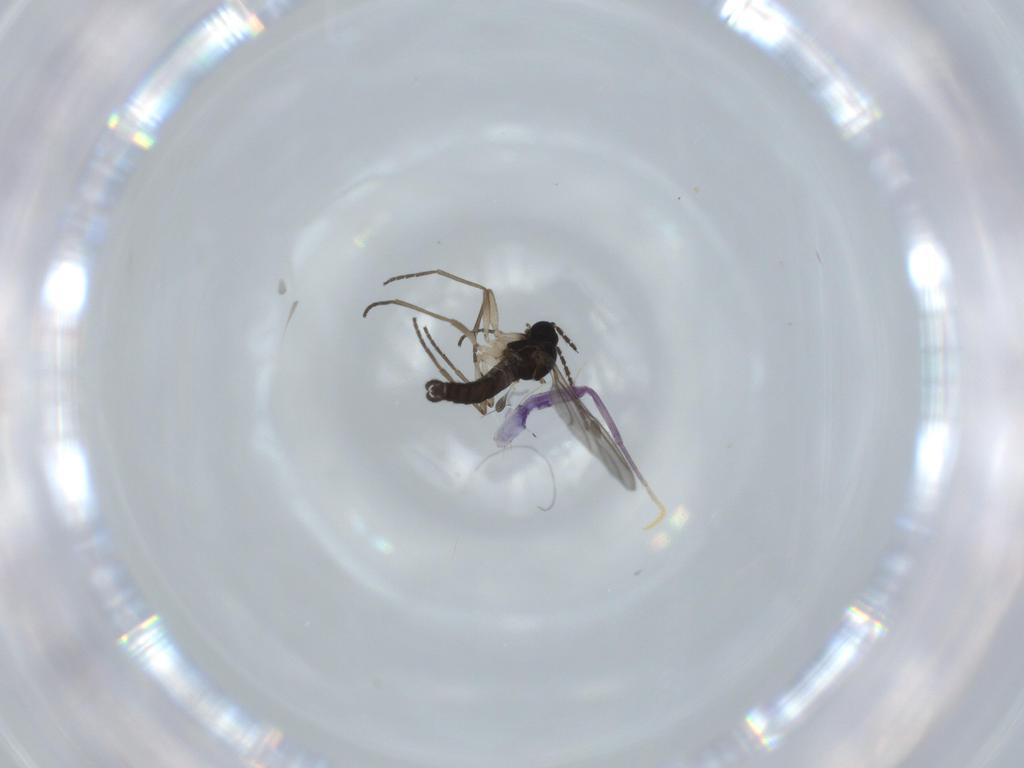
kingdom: Animalia
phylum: Arthropoda
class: Insecta
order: Diptera
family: Sciaridae
